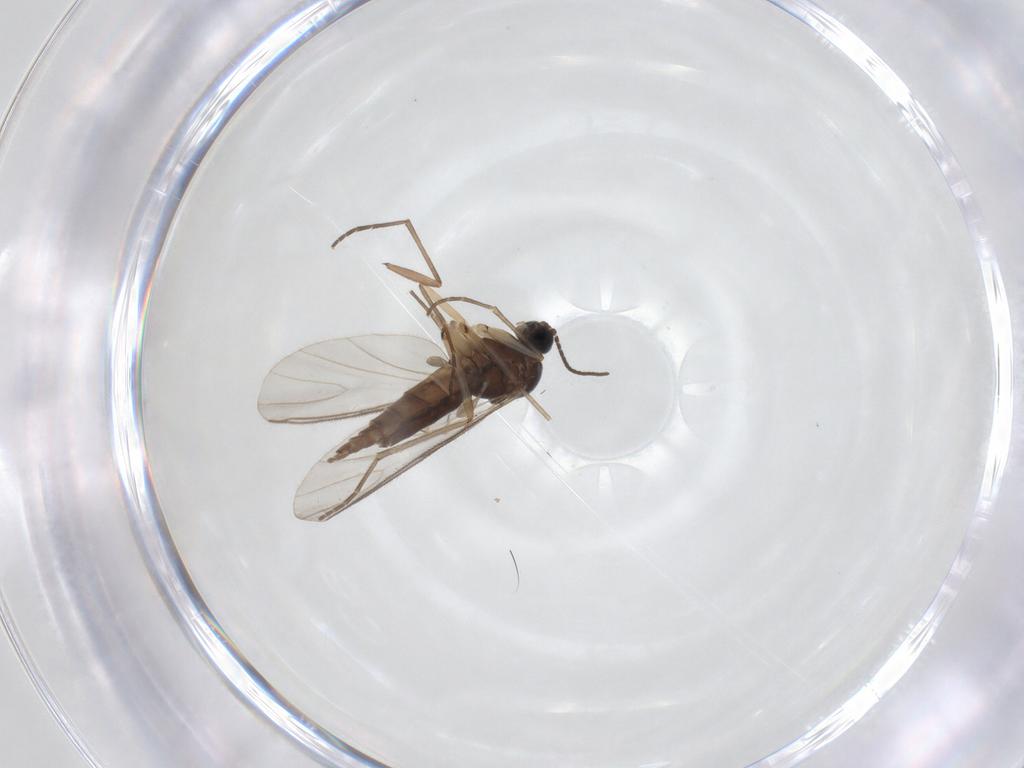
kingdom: Animalia
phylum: Arthropoda
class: Insecta
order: Diptera
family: Sciaridae
